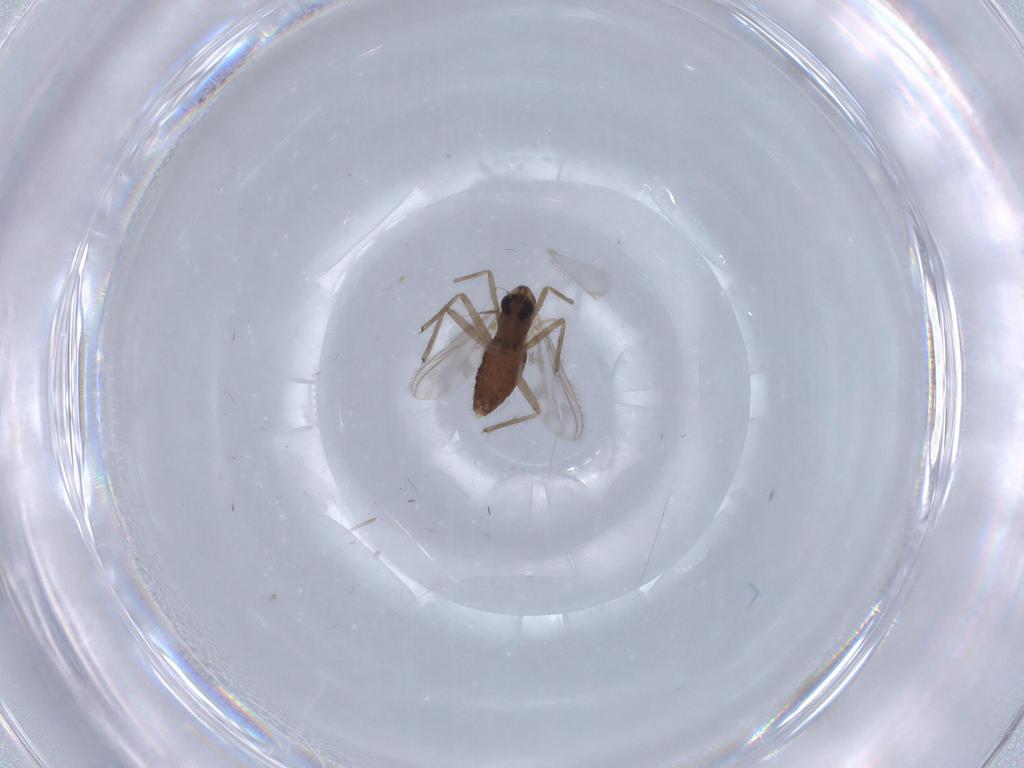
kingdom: Animalia
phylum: Arthropoda
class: Insecta
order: Diptera
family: Chironomidae
